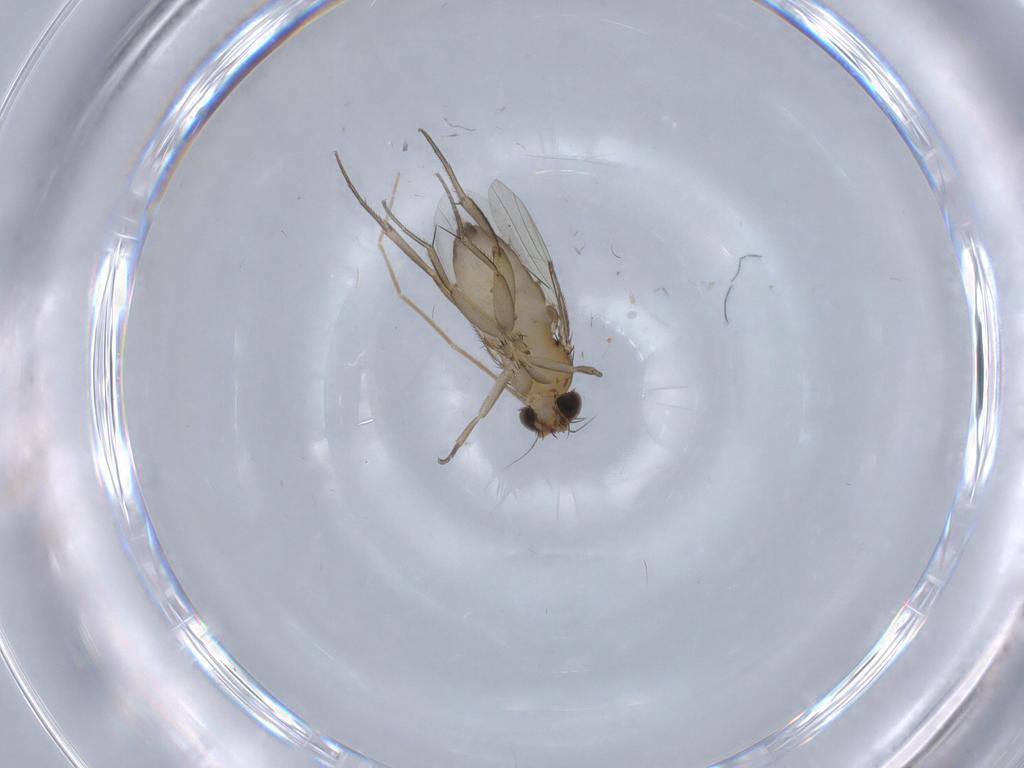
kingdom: Animalia
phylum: Arthropoda
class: Insecta
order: Diptera
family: Phoridae
